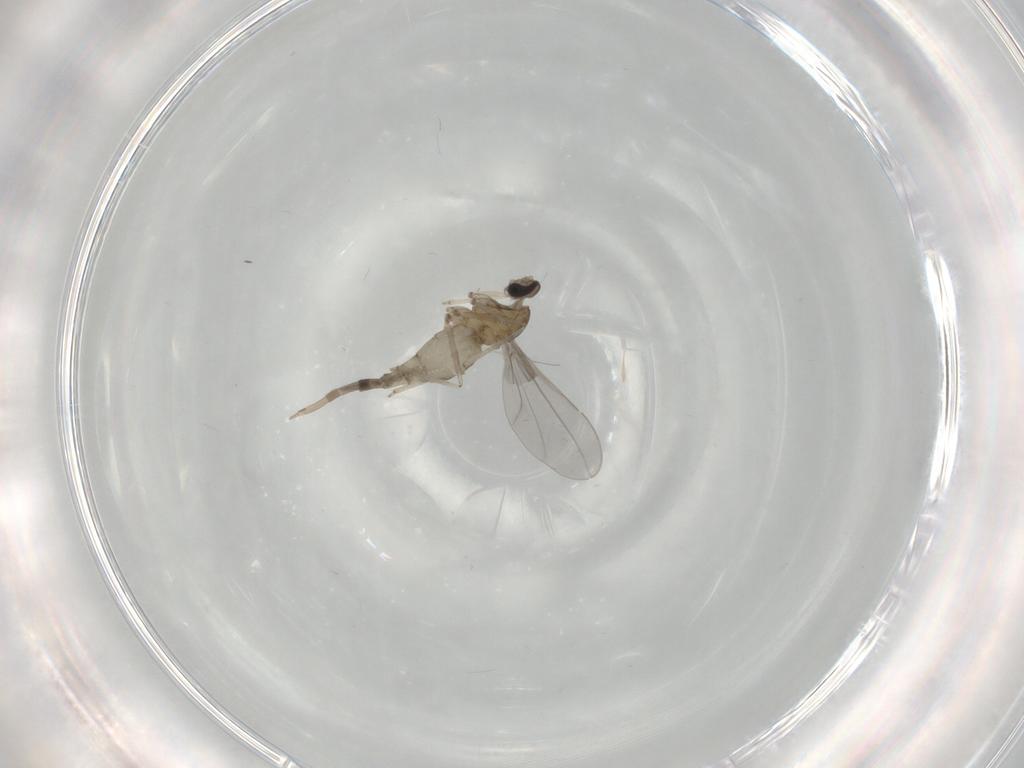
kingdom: Animalia
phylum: Arthropoda
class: Insecta
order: Diptera
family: Cecidomyiidae
